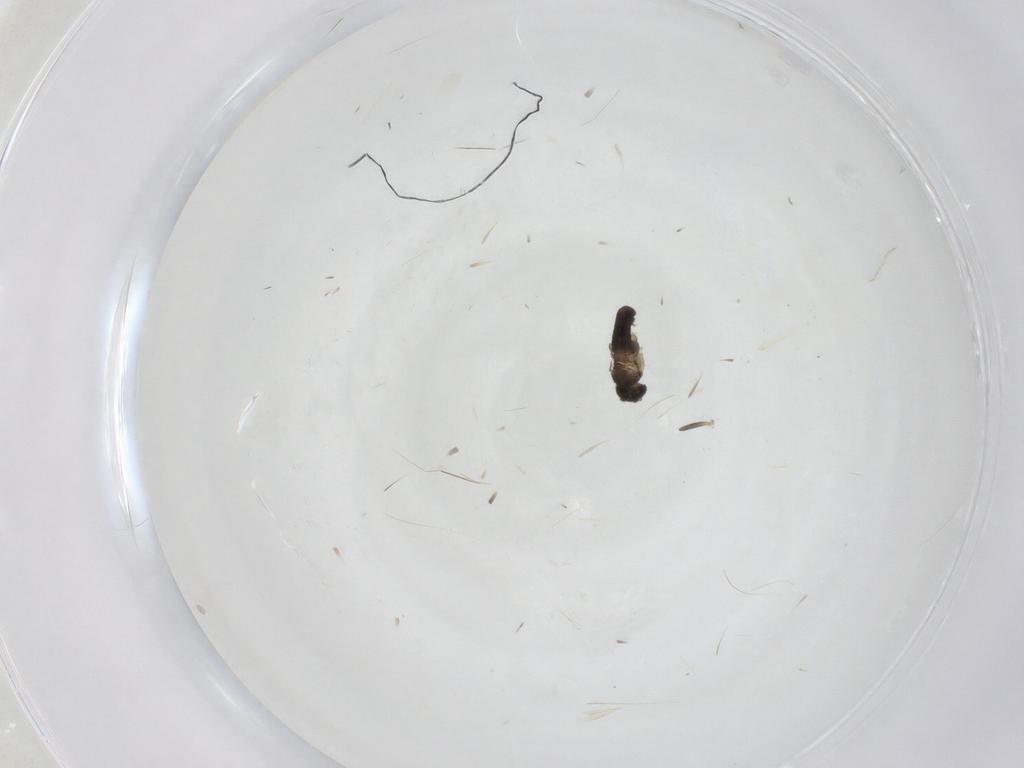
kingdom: Animalia
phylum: Arthropoda
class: Insecta
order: Diptera
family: Phoridae
